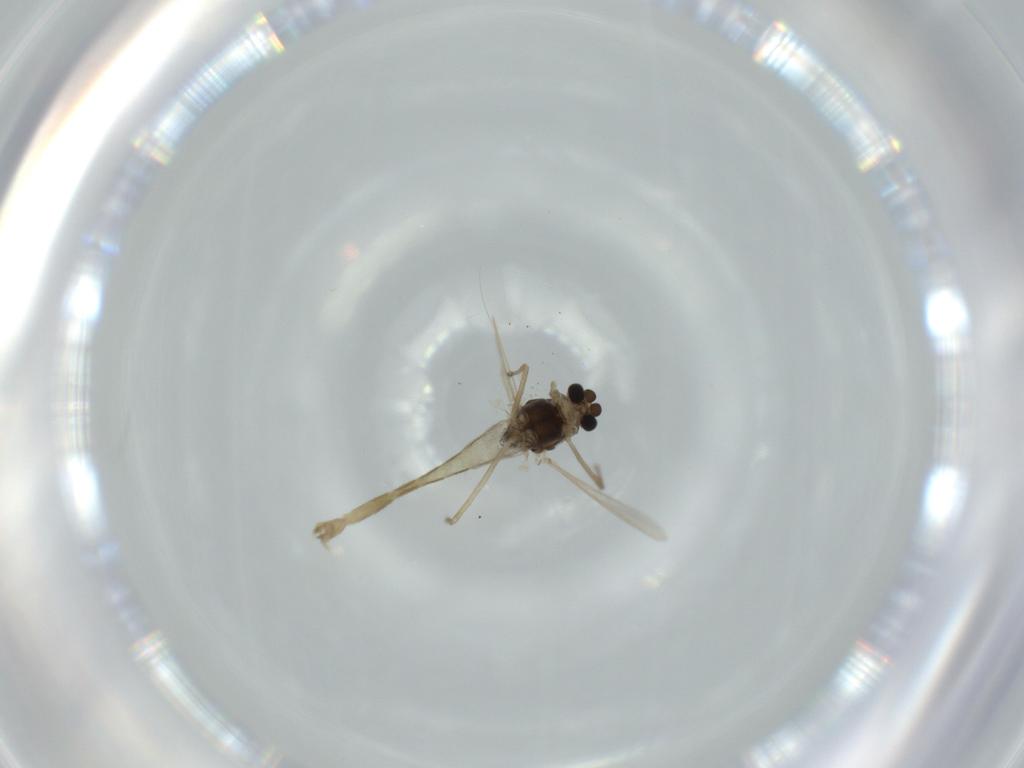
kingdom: Animalia
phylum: Arthropoda
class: Insecta
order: Diptera
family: Chironomidae
